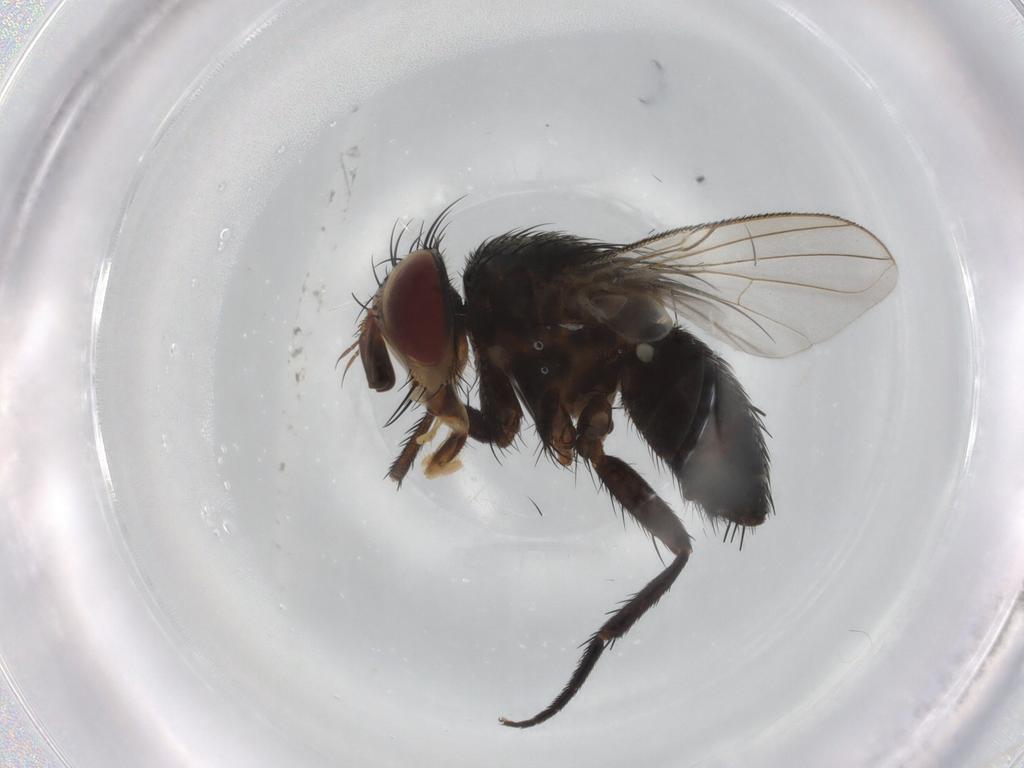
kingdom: Animalia
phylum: Arthropoda
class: Insecta
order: Diptera
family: Tachinidae
